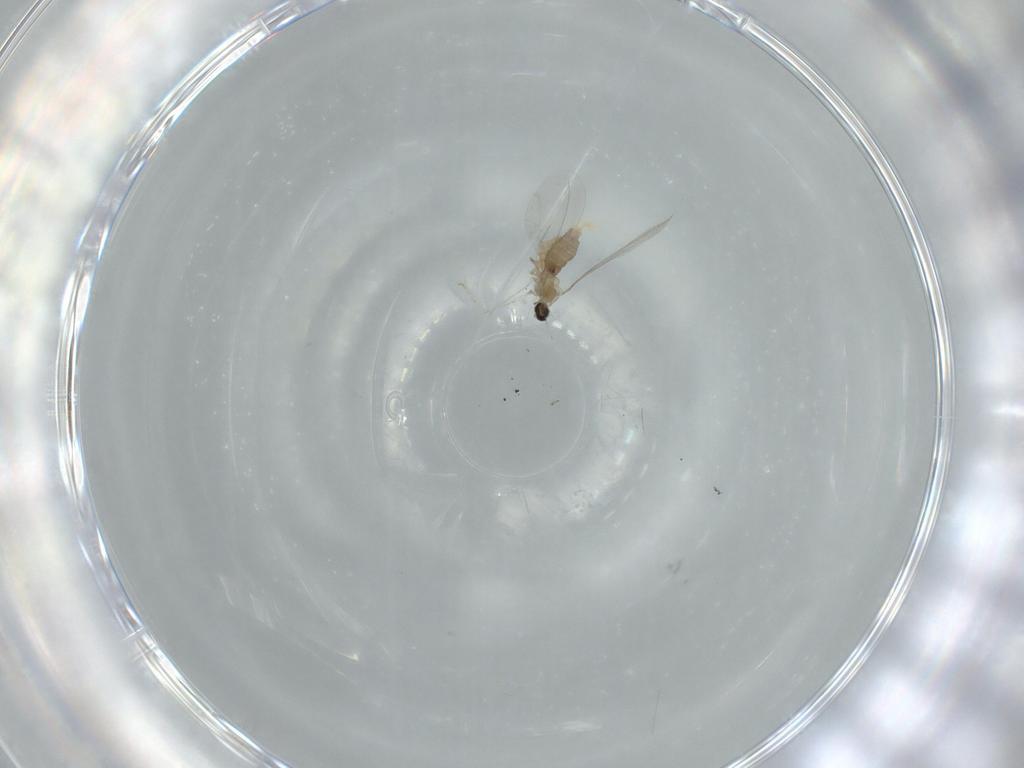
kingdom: Animalia
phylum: Arthropoda
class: Insecta
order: Diptera
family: Cecidomyiidae
